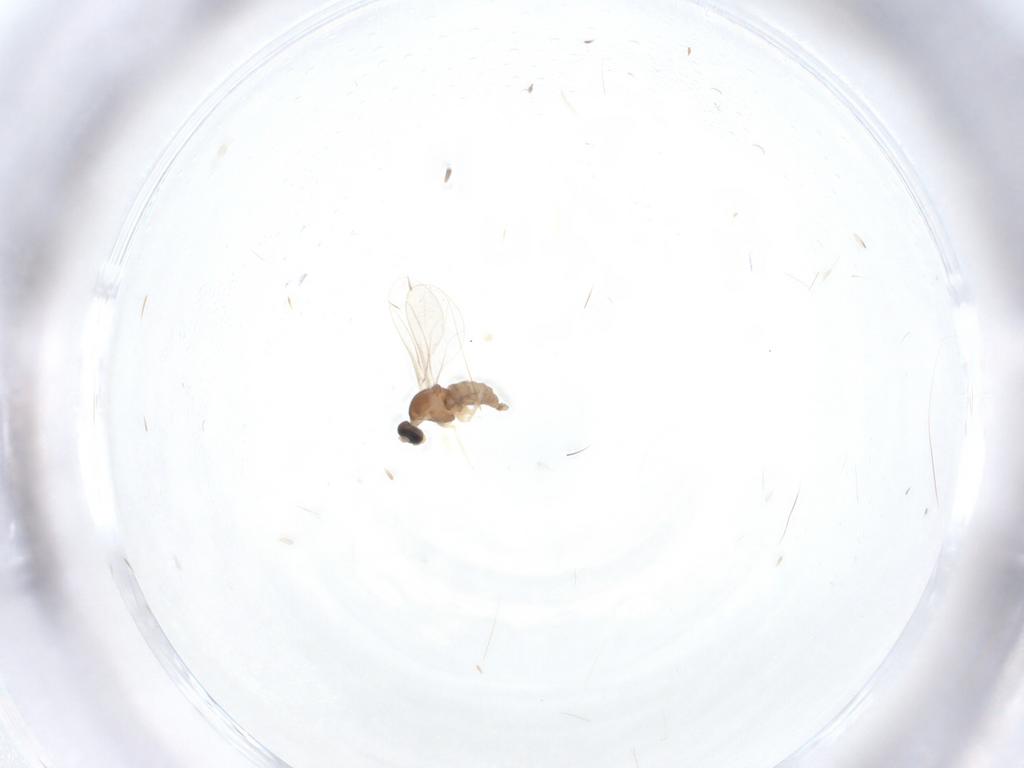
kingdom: Animalia
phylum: Arthropoda
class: Insecta
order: Diptera
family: Cecidomyiidae
